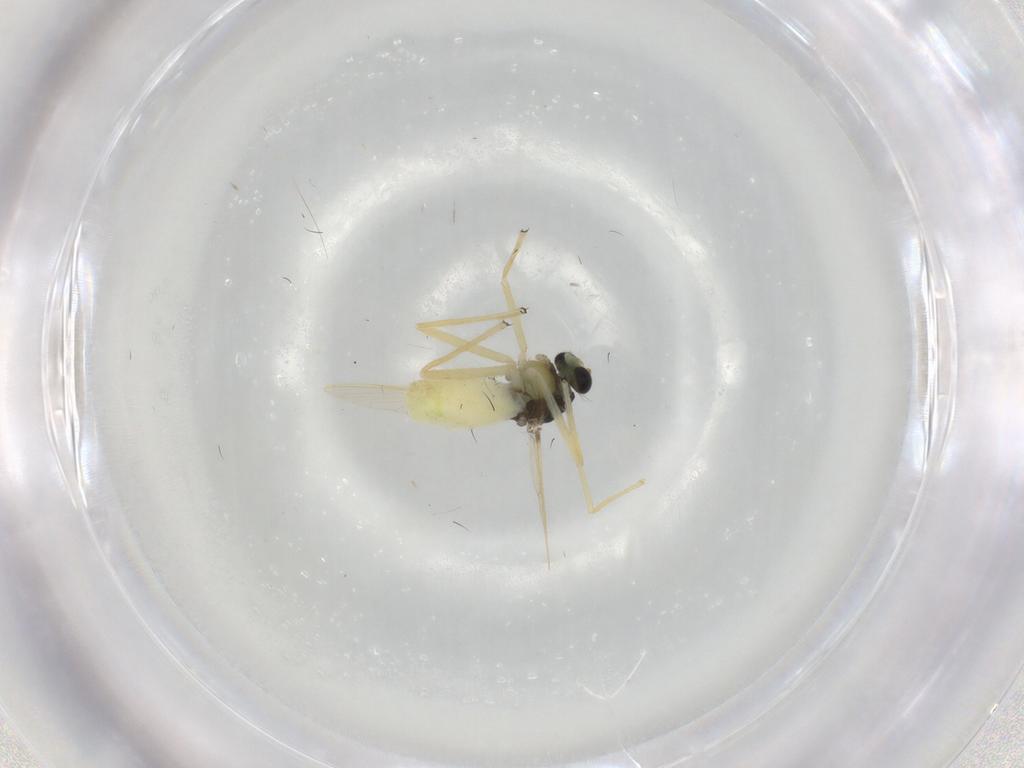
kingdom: Animalia
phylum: Arthropoda
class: Insecta
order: Diptera
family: Chironomidae
